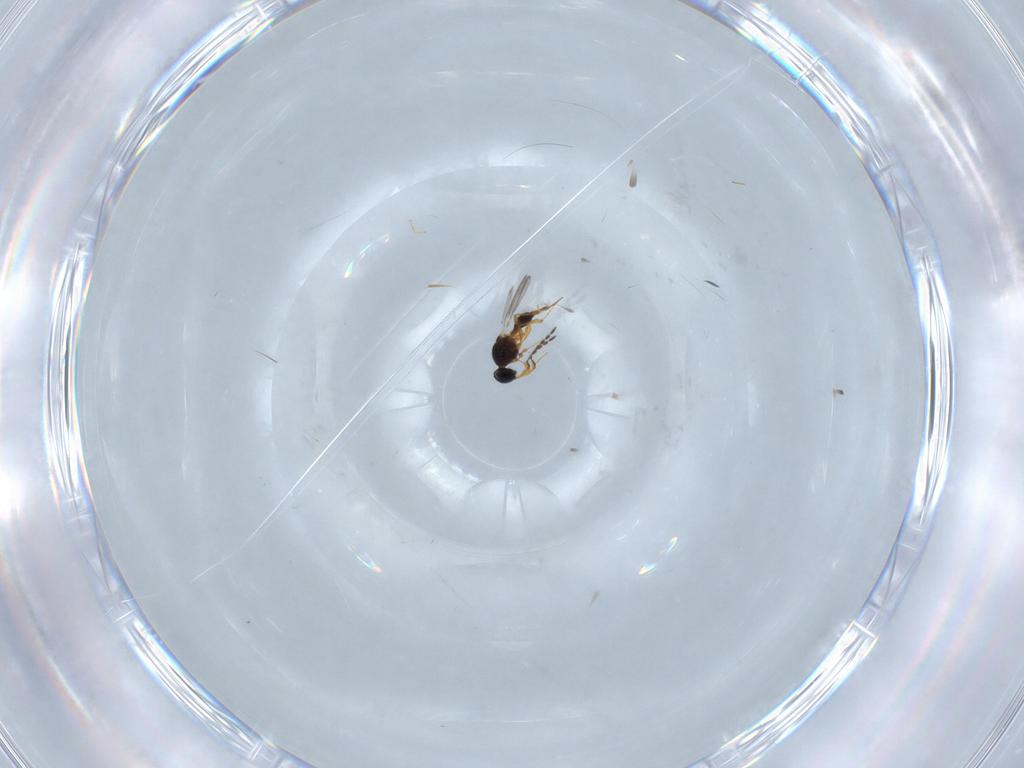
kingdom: Animalia
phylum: Arthropoda
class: Insecta
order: Hymenoptera
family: Platygastridae
